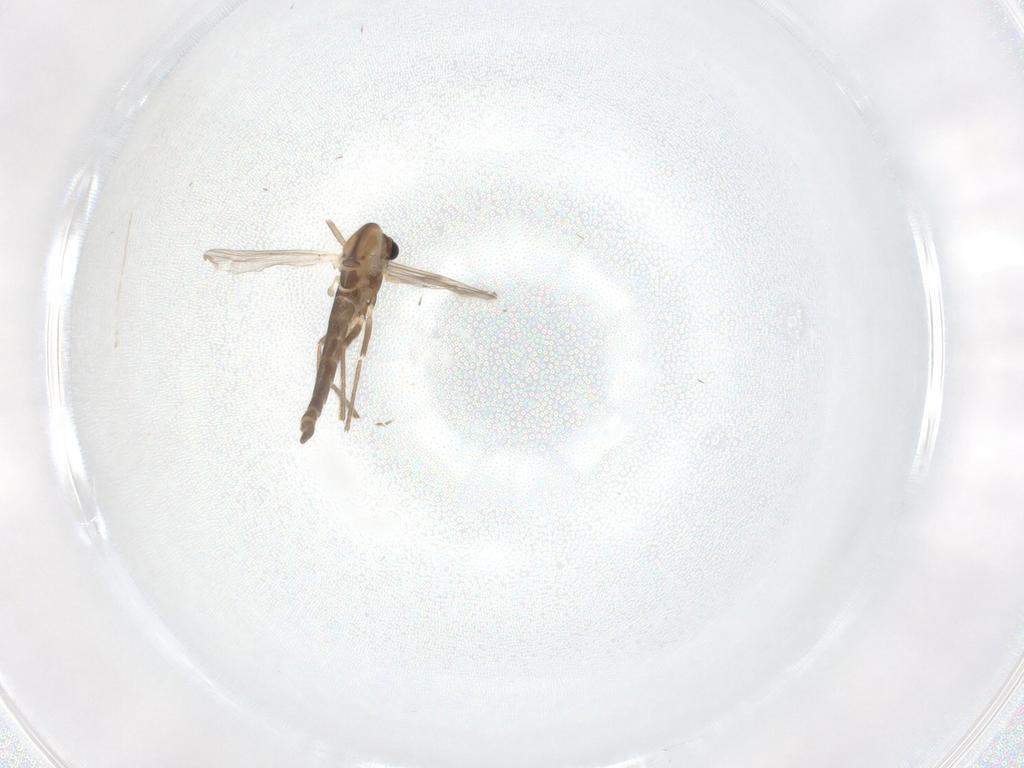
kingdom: Animalia
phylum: Arthropoda
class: Insecta
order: Diptera
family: Chironomidae
